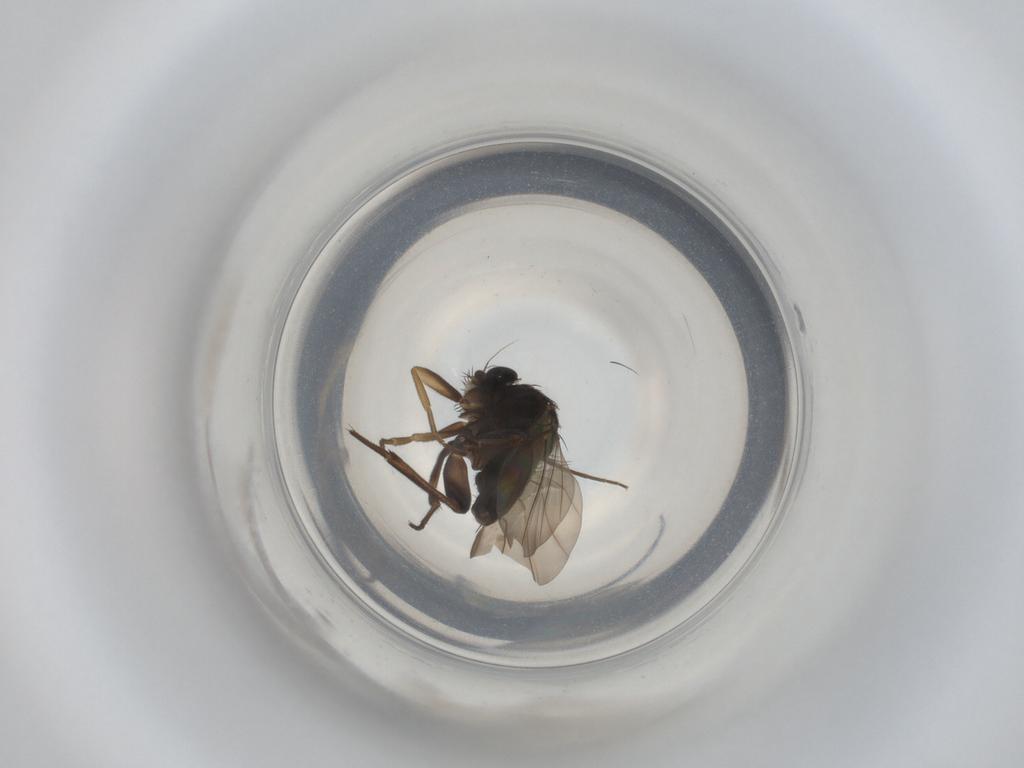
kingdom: Animalia
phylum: Arthropoda
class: Insecta
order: Diptera
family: Phoridae
